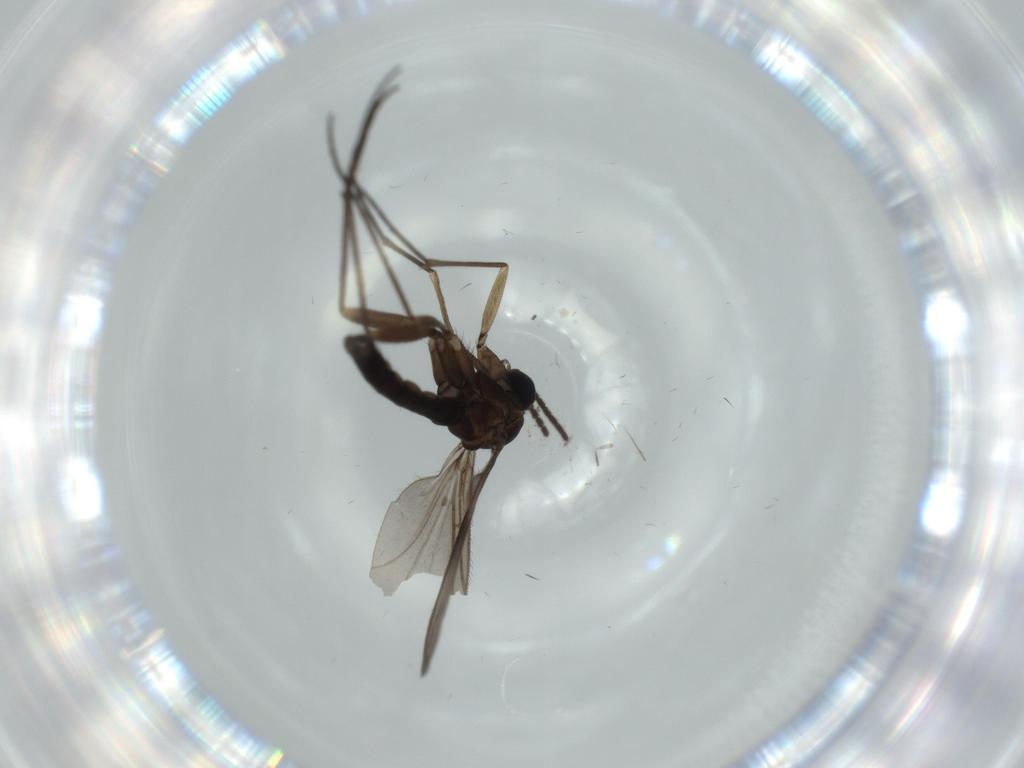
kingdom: Animalia
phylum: Arthropoda
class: Insecta
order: Diptera
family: Sciaridae
